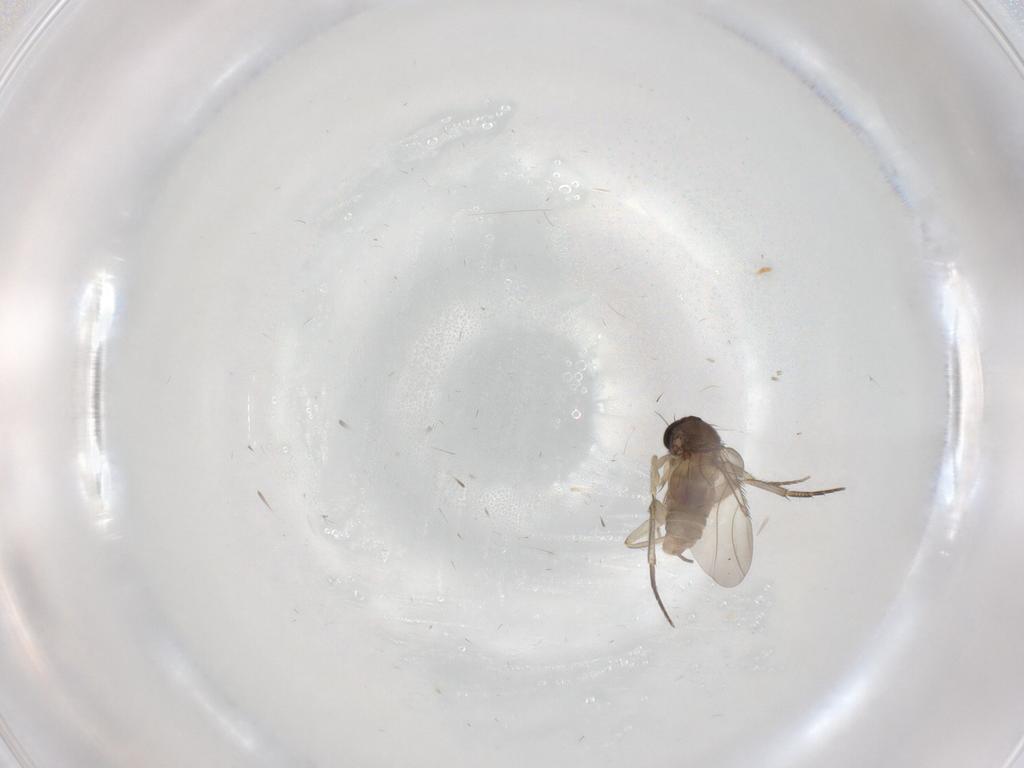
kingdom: Animalia
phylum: Arthropoda
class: Insecta
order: Diptera
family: Phoridae
